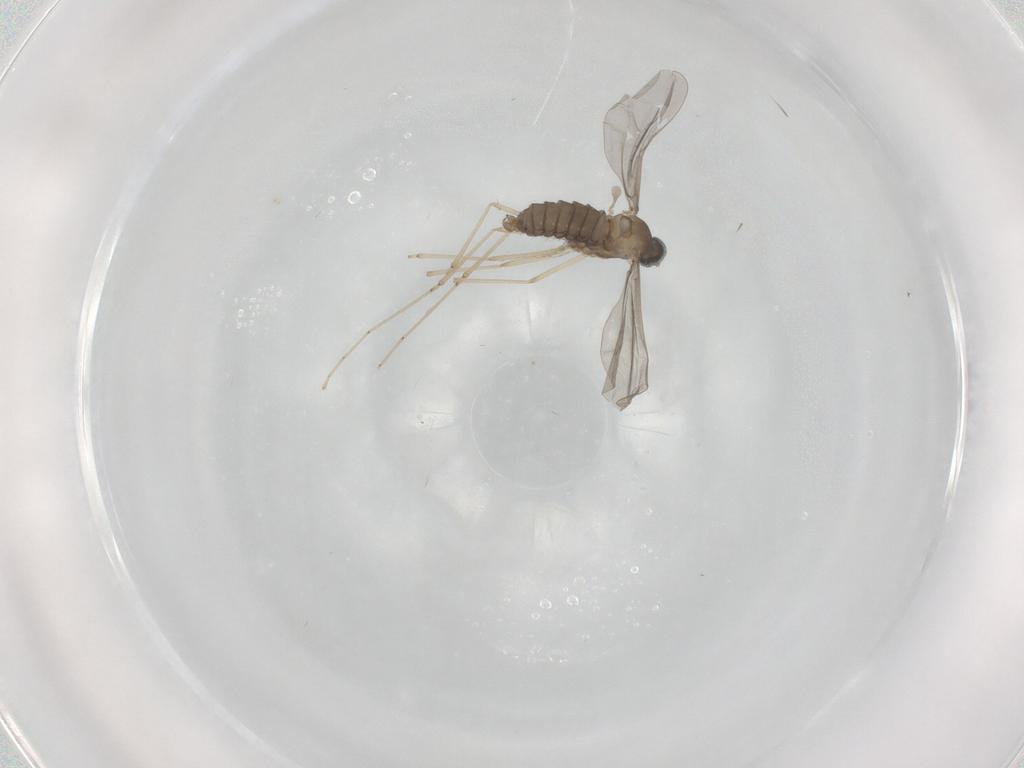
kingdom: Animalia
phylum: Arthropoda
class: Insecta
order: Diptera
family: Cecidomyiidae
